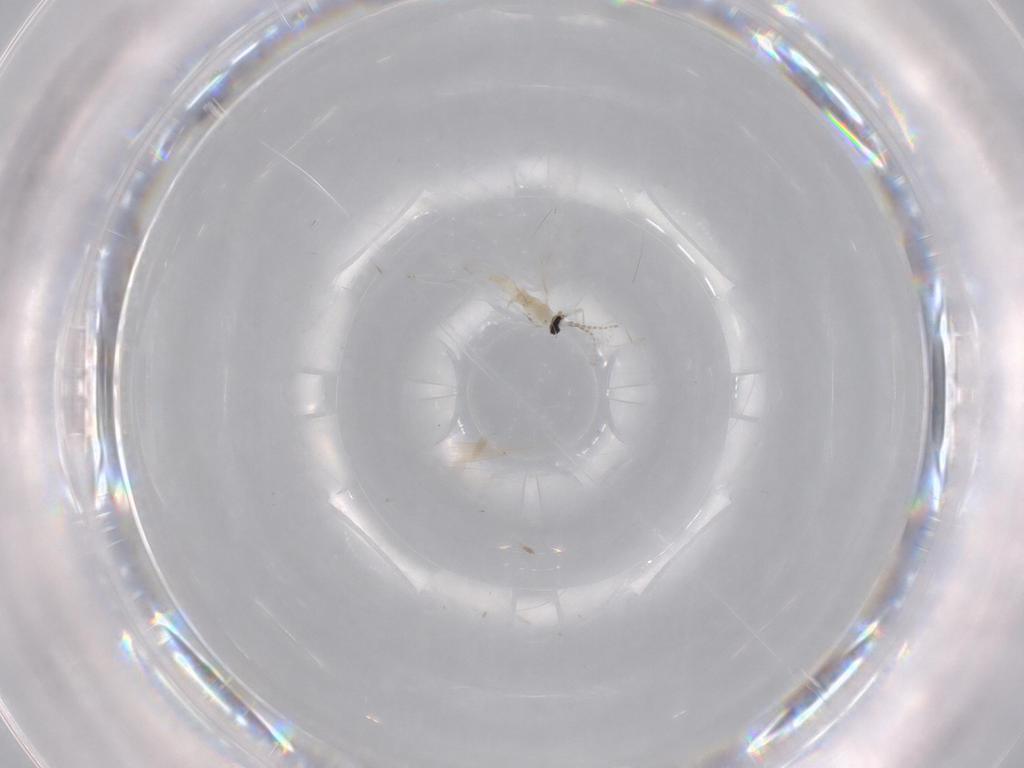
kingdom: Animalia
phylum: Arthropoda
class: Insecta
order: Diptera
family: Sciaridae
